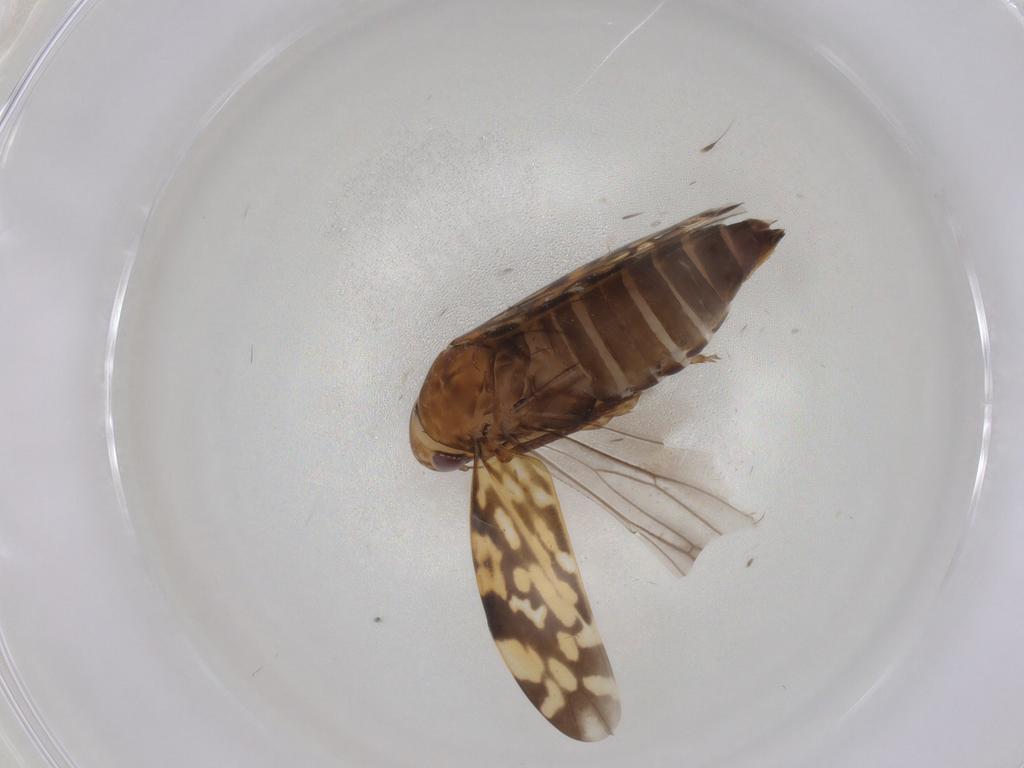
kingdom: Animalia
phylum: Arthropoda
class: Insecta
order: Hemiptera
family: Cicadellidae
